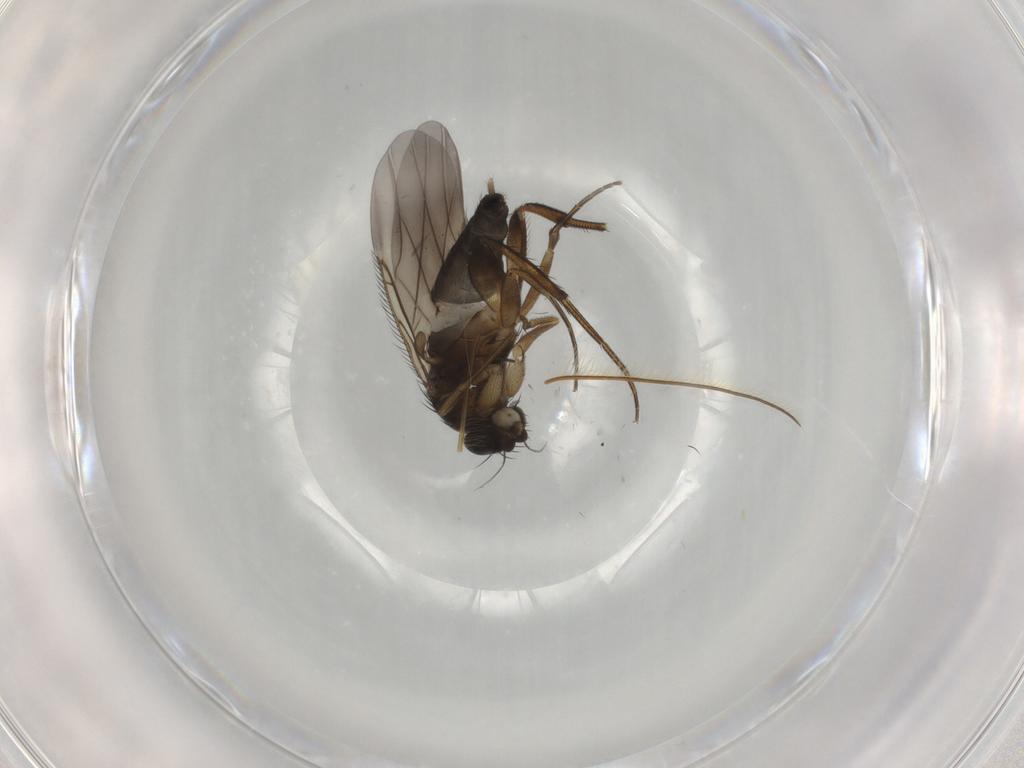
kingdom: Animalia
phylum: Arthropoda
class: Insecta
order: Diptera
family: Phoridae
